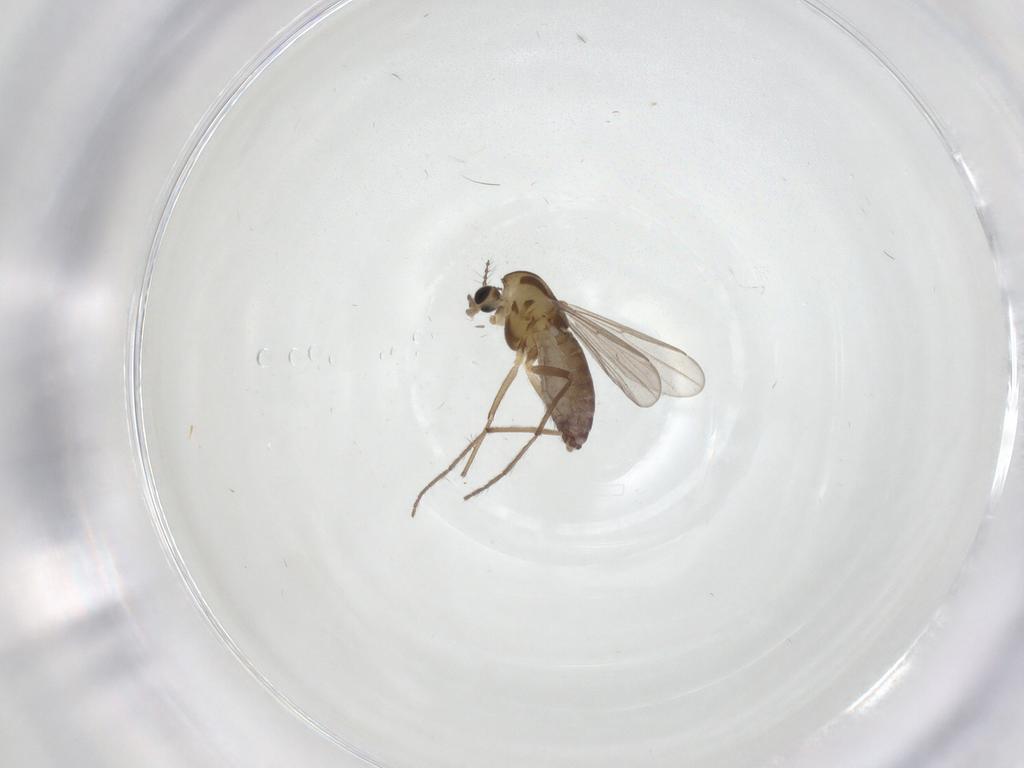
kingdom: Animalia
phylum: Arthropoda
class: Insecta
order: Diptera
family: Chironomidae
